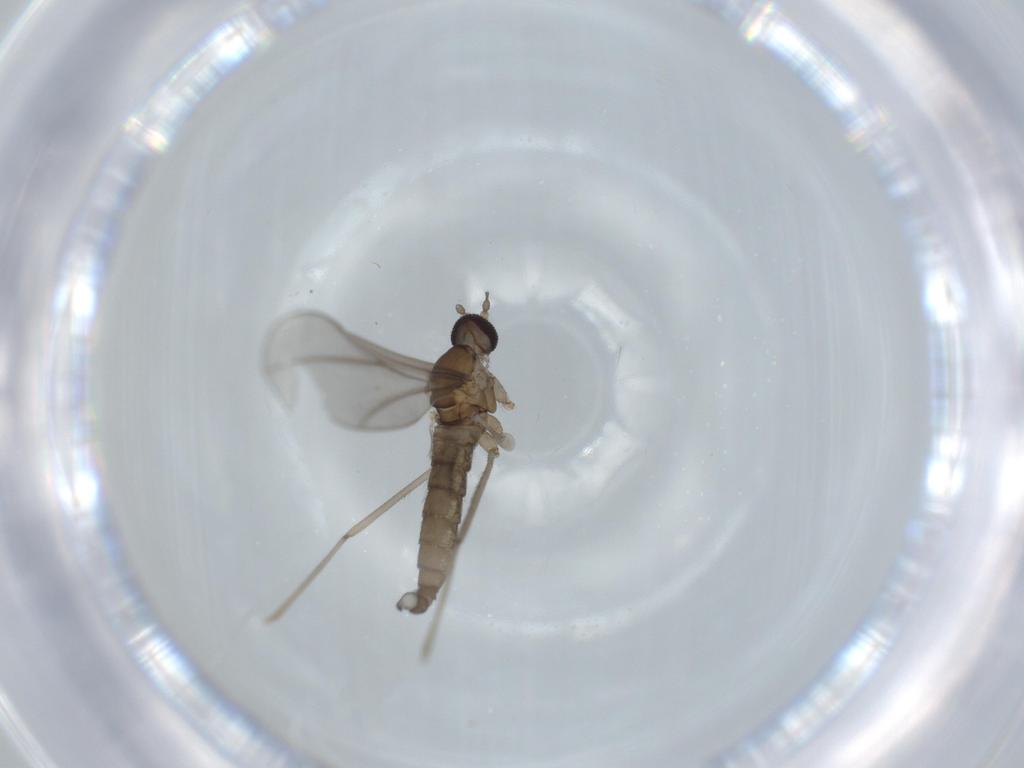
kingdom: Animalia
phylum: Arthropoda
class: Insecta
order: Diptera
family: Cecidomyiidae
